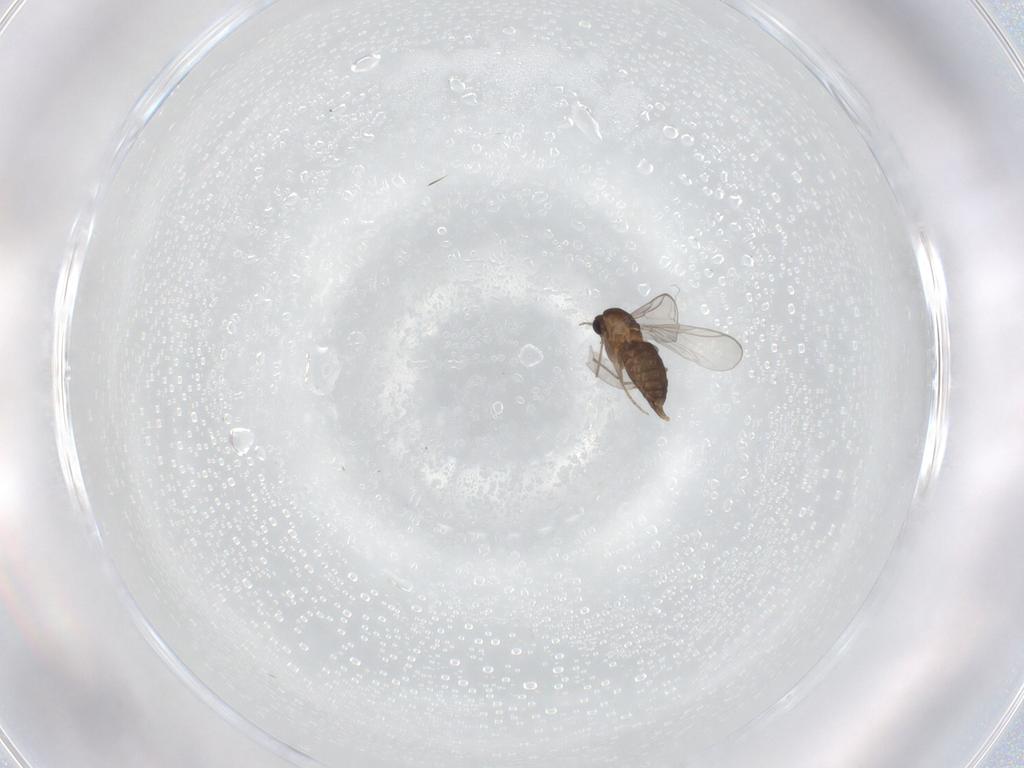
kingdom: Animalia
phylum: Arthropoda
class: Insecta
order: Diptera
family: Chironomidae
